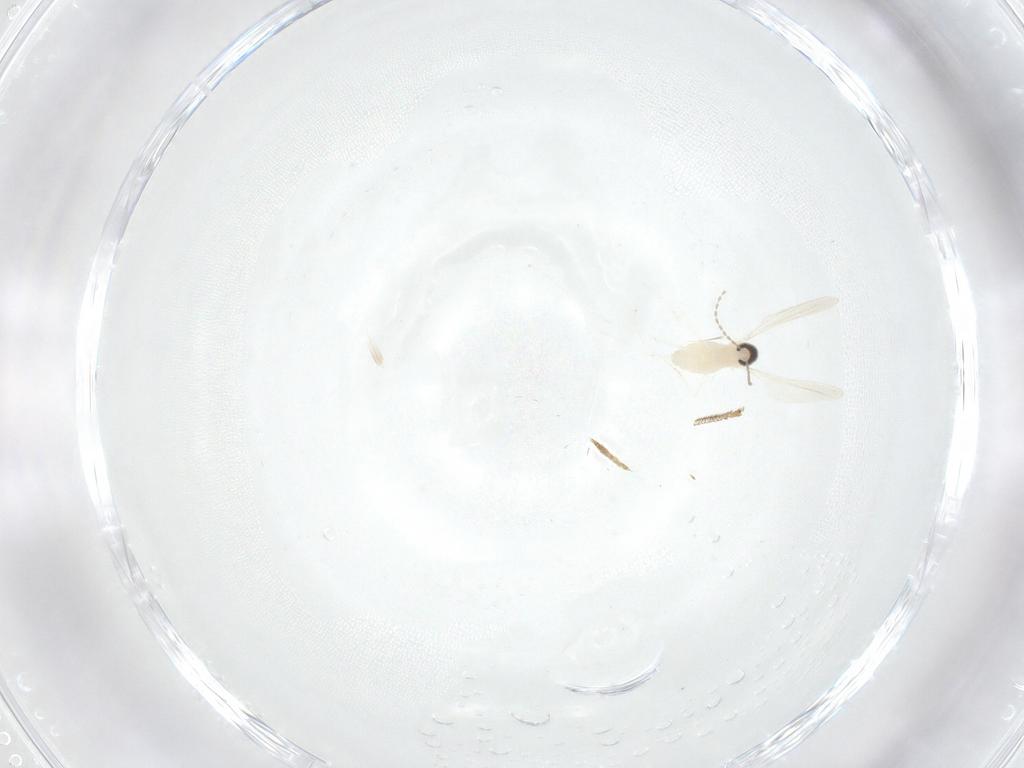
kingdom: Animalia
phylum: Arthropoda
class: Insecta
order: Diptera
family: Cecidomyiidae
